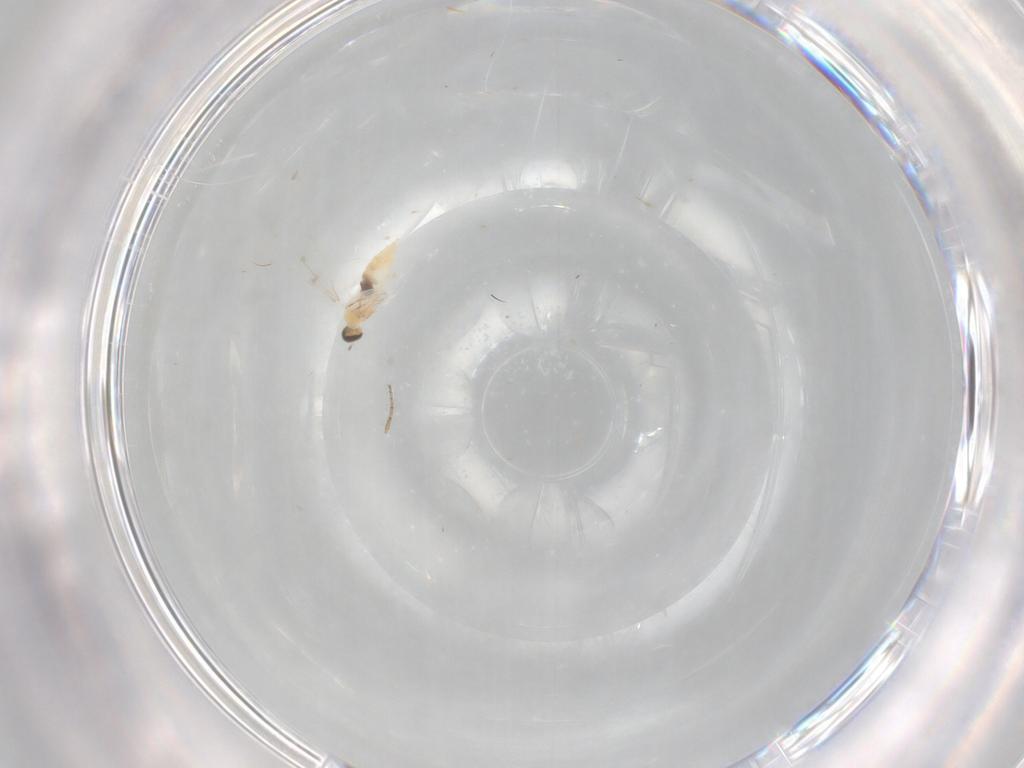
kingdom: Animalia
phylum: Arthropoda
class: Insecta
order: Diptera
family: Cecidomyiidae
